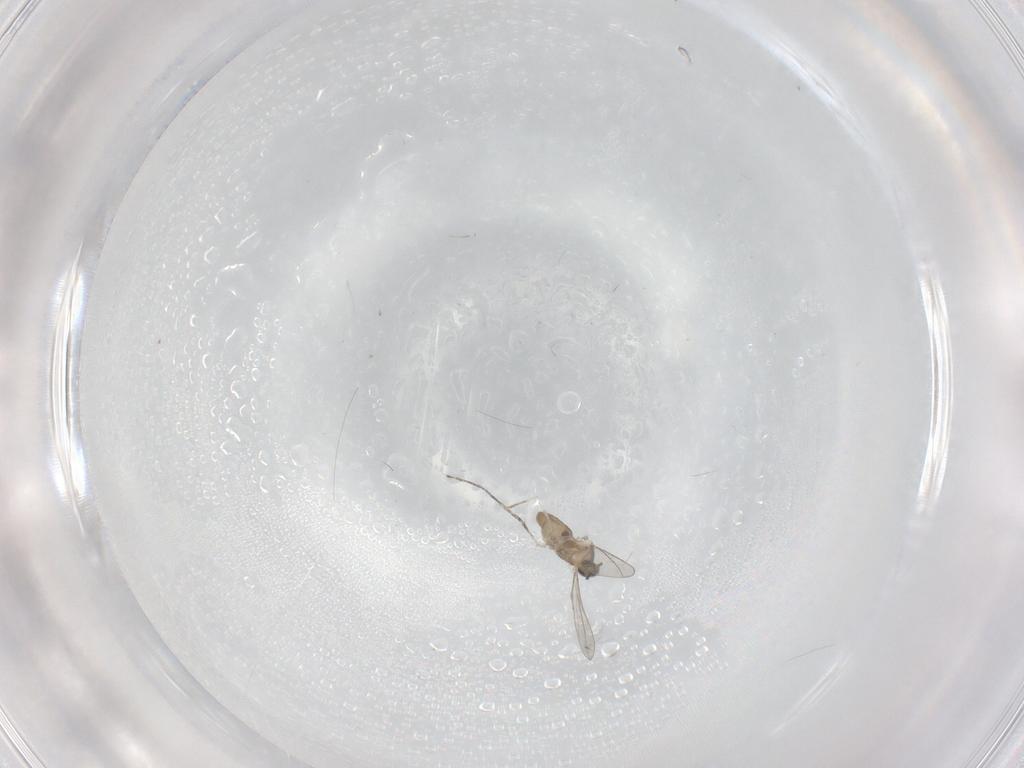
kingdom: Animalia
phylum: Arthropoda
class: Insecta
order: Diptera
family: Cecidomyiidae
